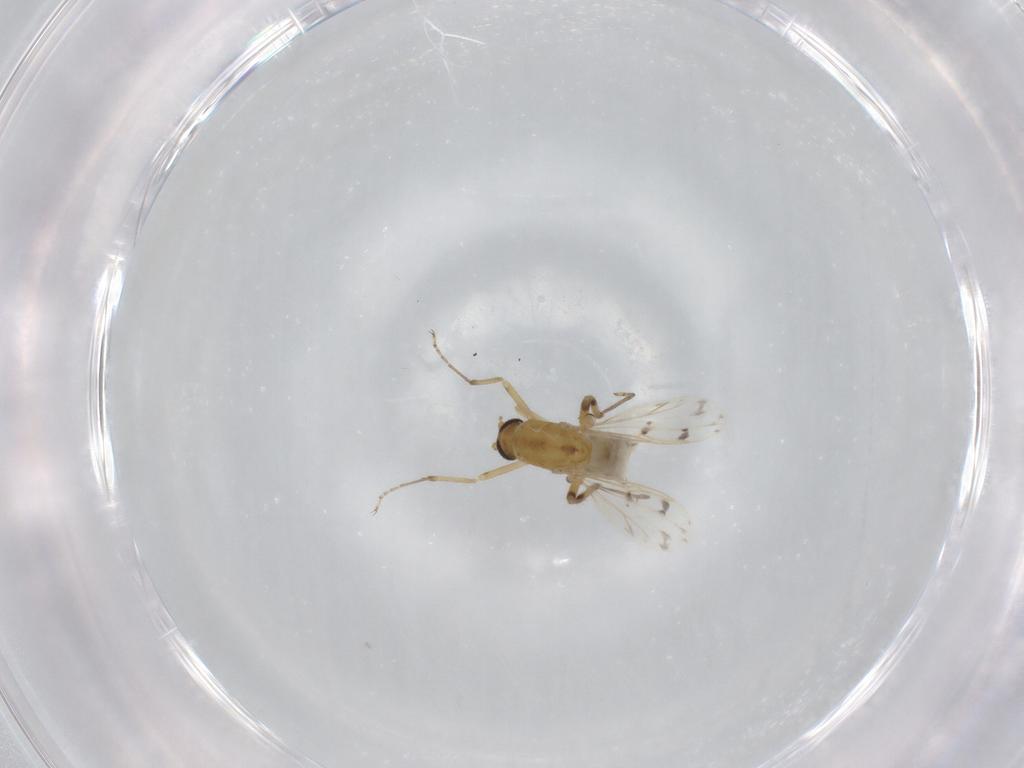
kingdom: Animalia
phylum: Arthropoda
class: Insecta
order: Diptera
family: Ceratopogonidae
